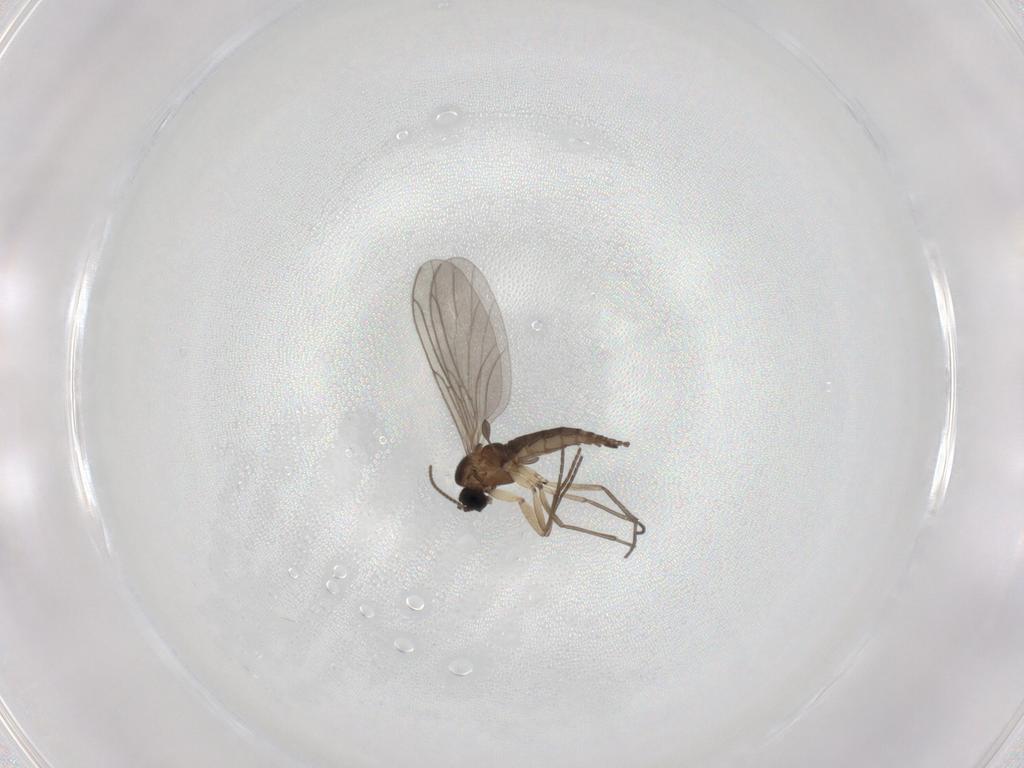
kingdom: Animalia
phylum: Arthropoda
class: Insecta
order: Diptera
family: Sciaridae
